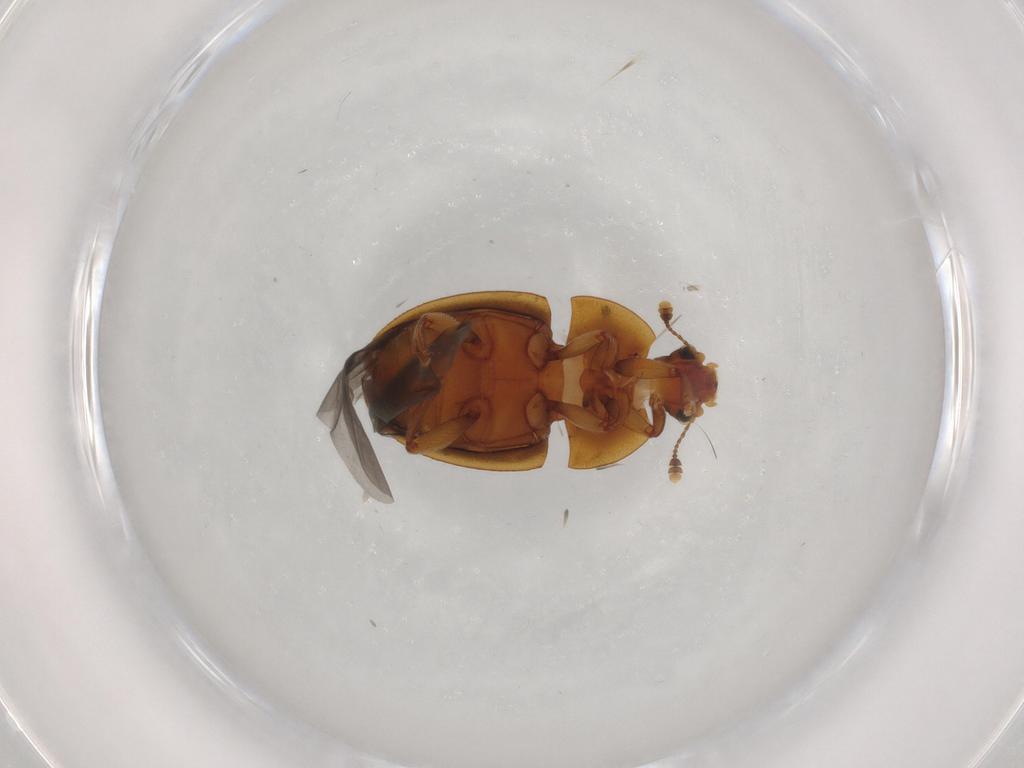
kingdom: Animalia
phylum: Arthropoda
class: Insecta
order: Coleoptera
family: Nitidulidae
